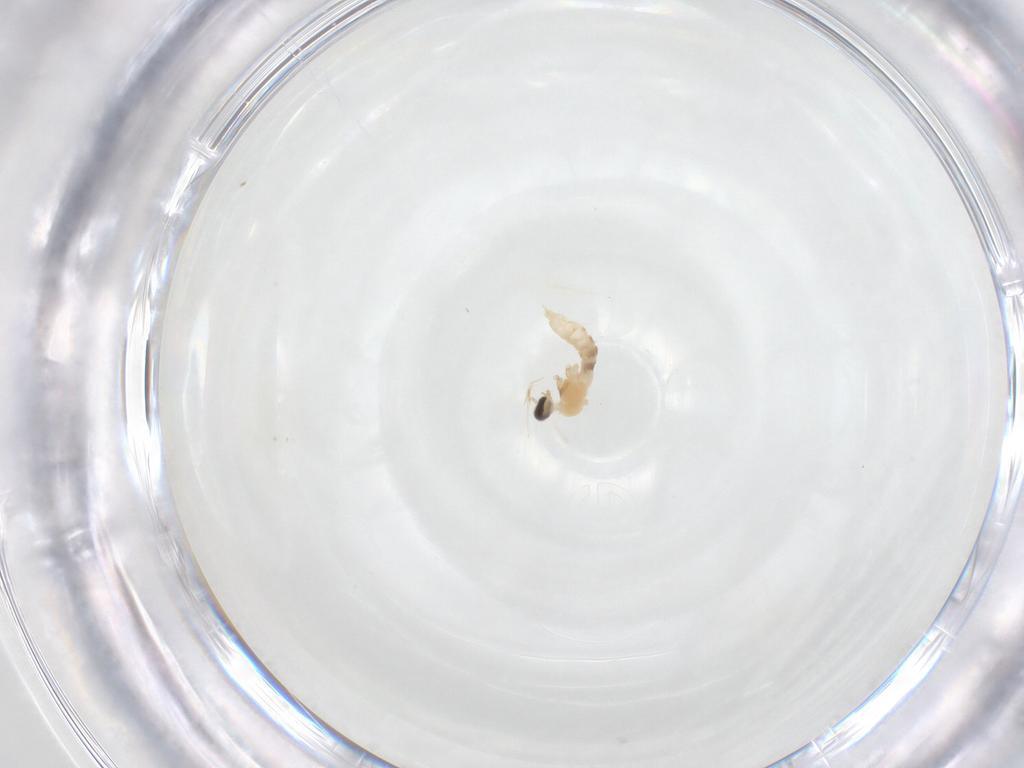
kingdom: Animalia
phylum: Arthropoda
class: Insecta
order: Diptera
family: Cecidomyiidae
